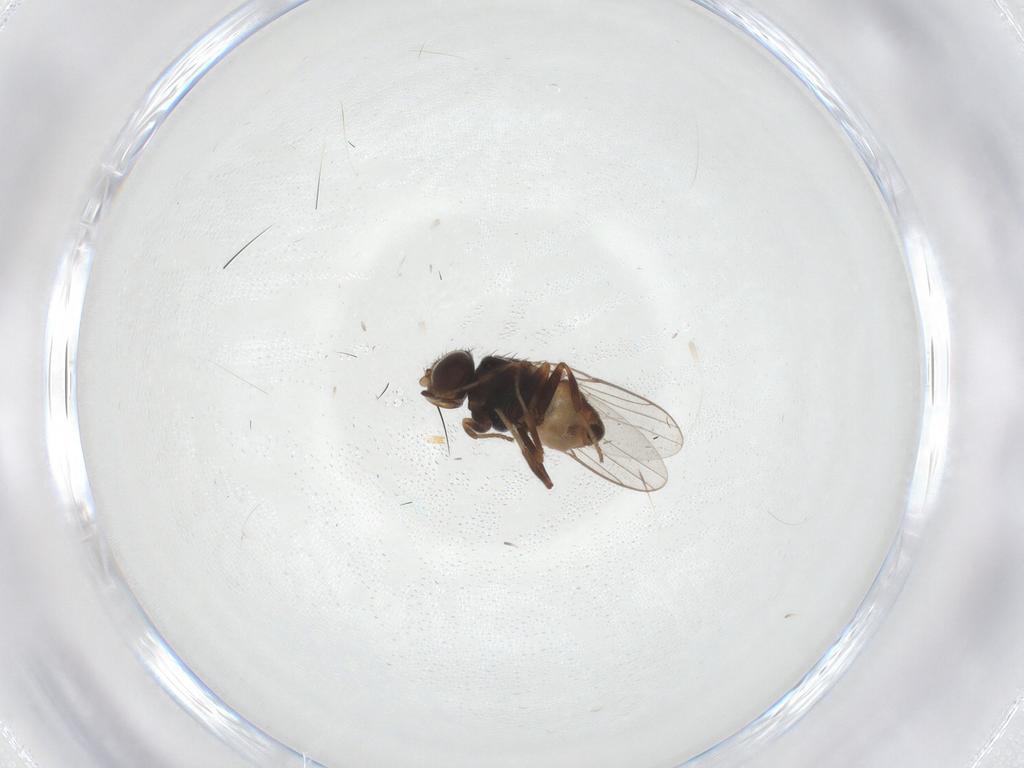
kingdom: Animalia
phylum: Arthropoda
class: Insecta
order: Diptera
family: Chloropidae
